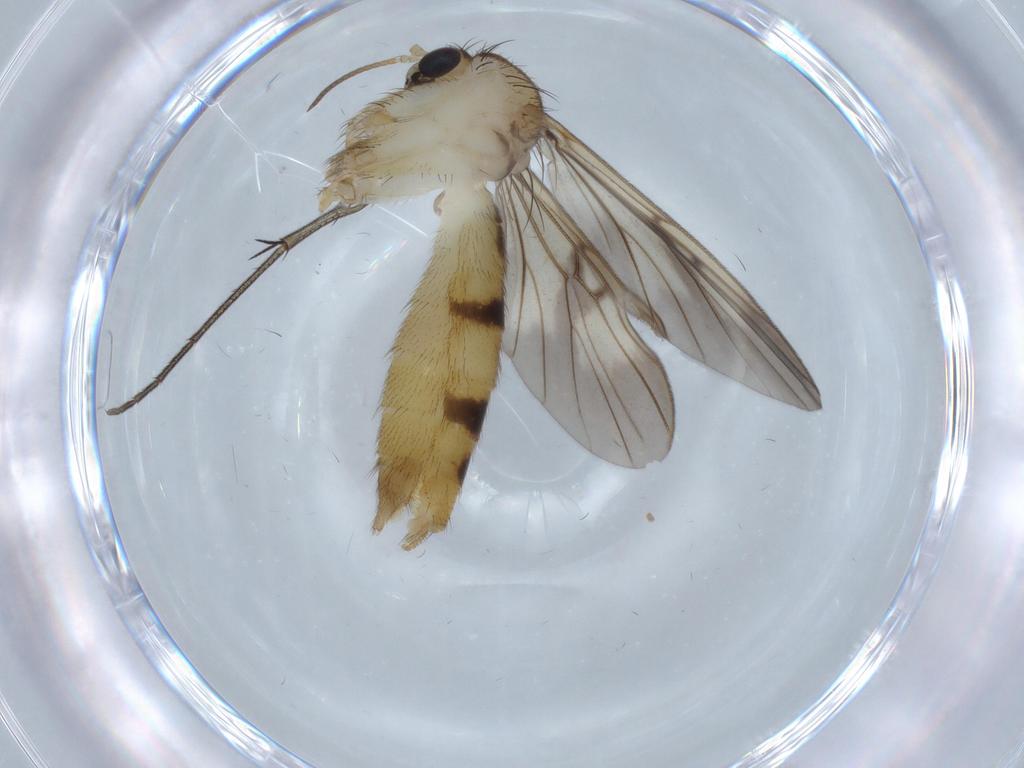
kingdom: Animalia
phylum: Arthropoda
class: Insecta
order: Diptera
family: Mycetophilidae
